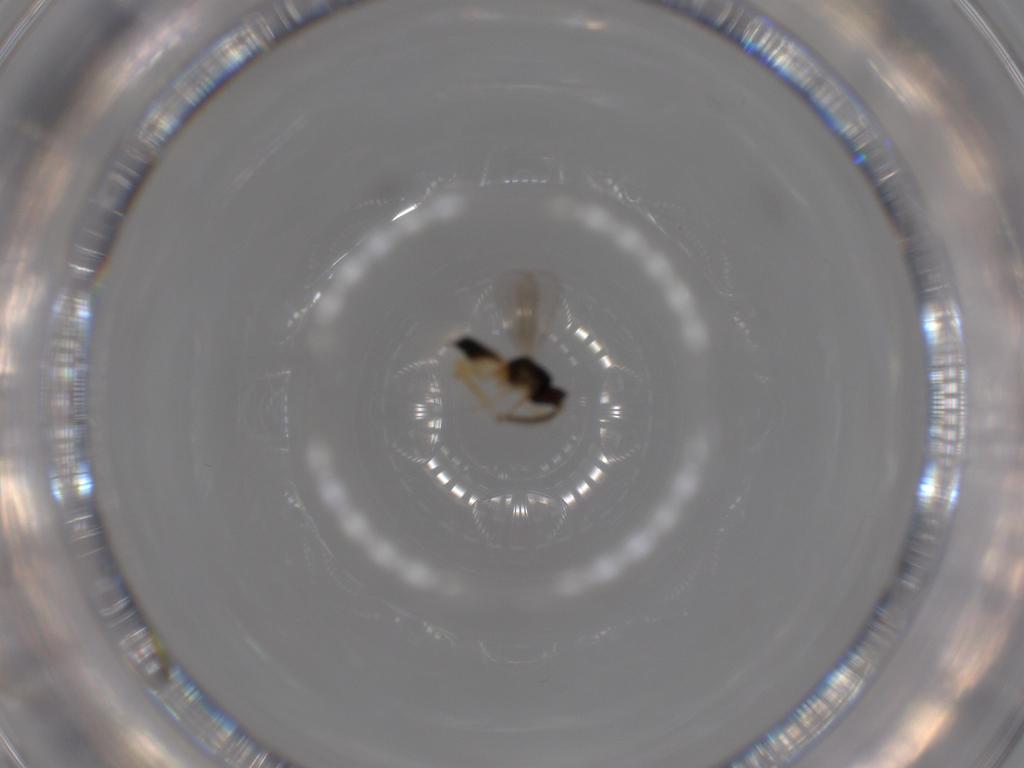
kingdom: Animalia
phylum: Arthropoda
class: Insecta
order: Hymenoptera
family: Eulophidae
